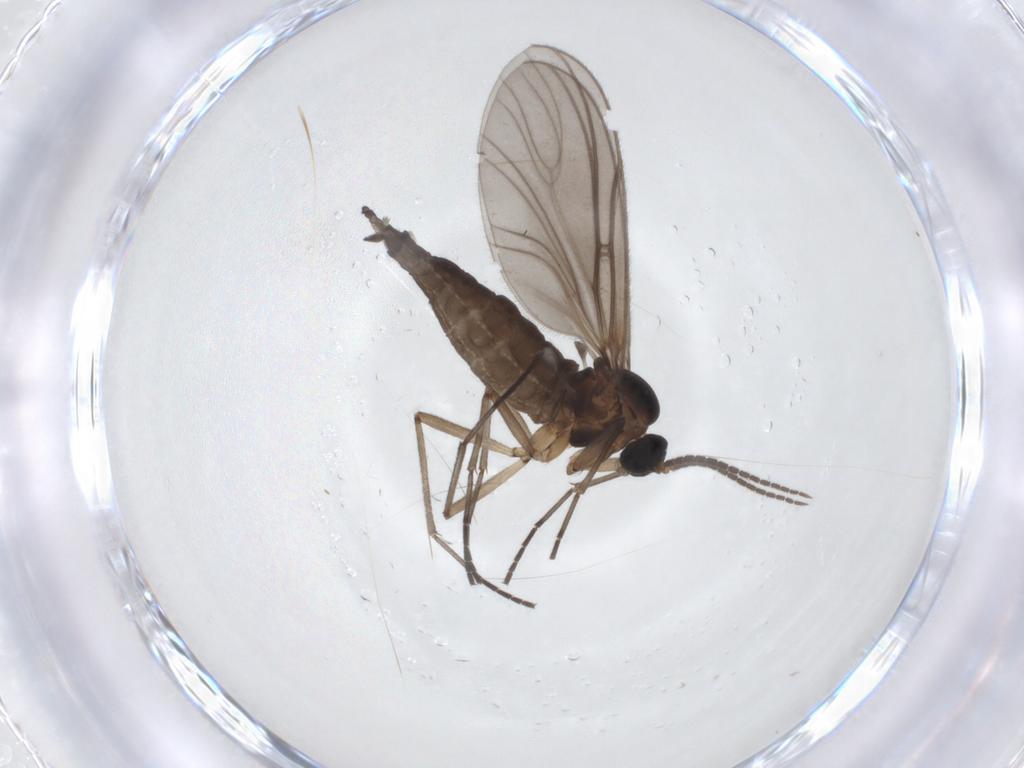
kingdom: Animalia
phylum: Arthropoda
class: Insecta
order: Diptera
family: Sciaridae
